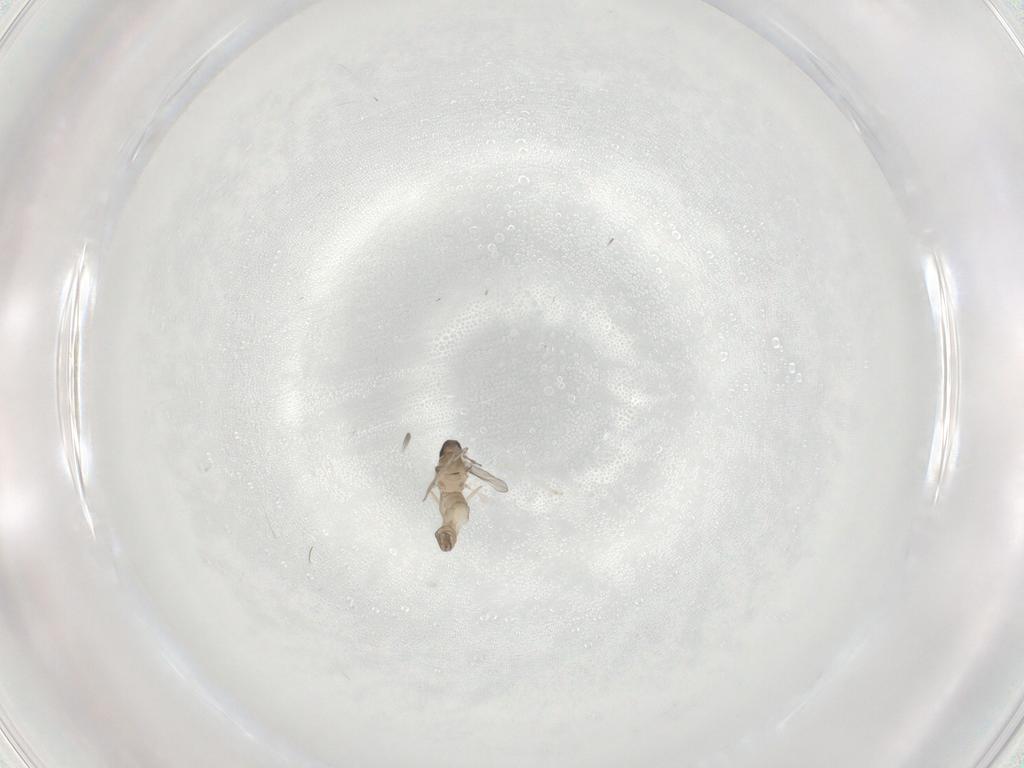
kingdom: Animalia
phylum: Arthropoda
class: Insecta
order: Diptera
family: Cecidomyiidae
